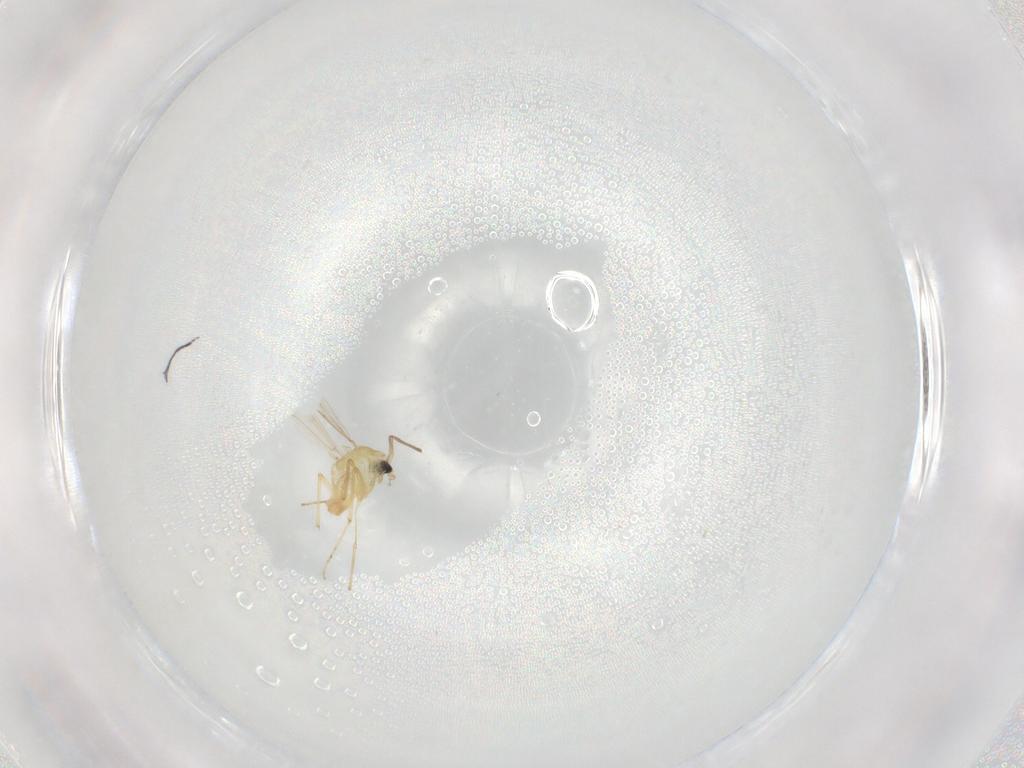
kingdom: Animalia
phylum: Arthropoda
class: Insecta
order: Diptera
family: Chironomidae
